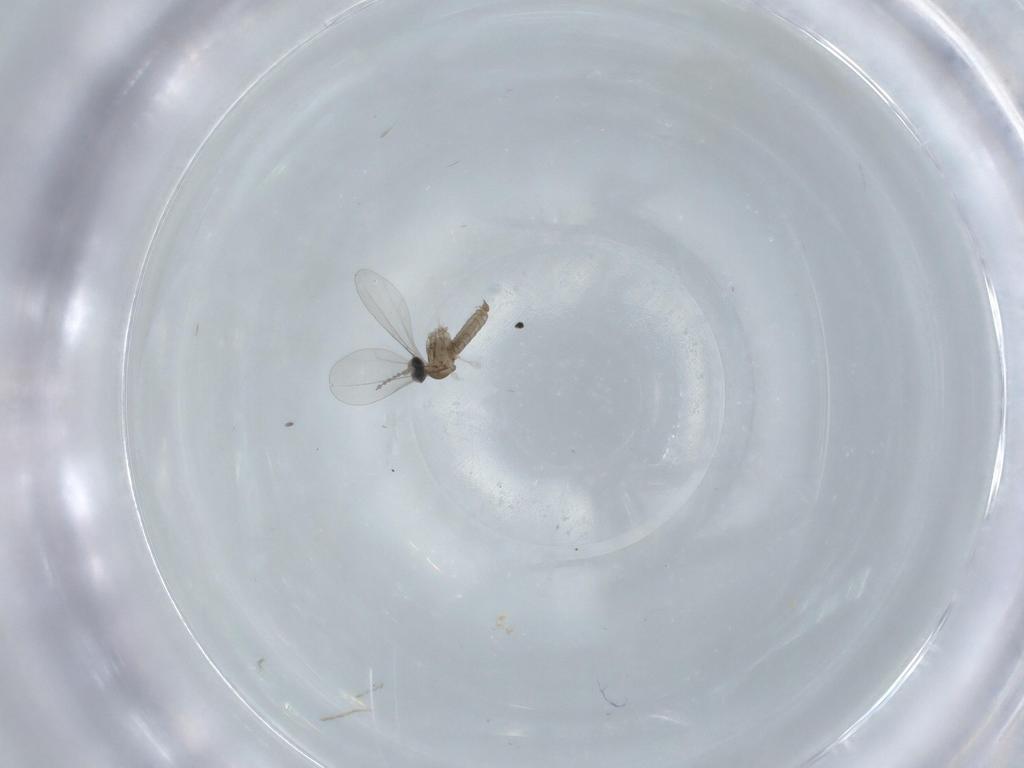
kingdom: Animalia
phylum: Arthropoda
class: Insecta
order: Diptera
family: Cecidomyiidae
